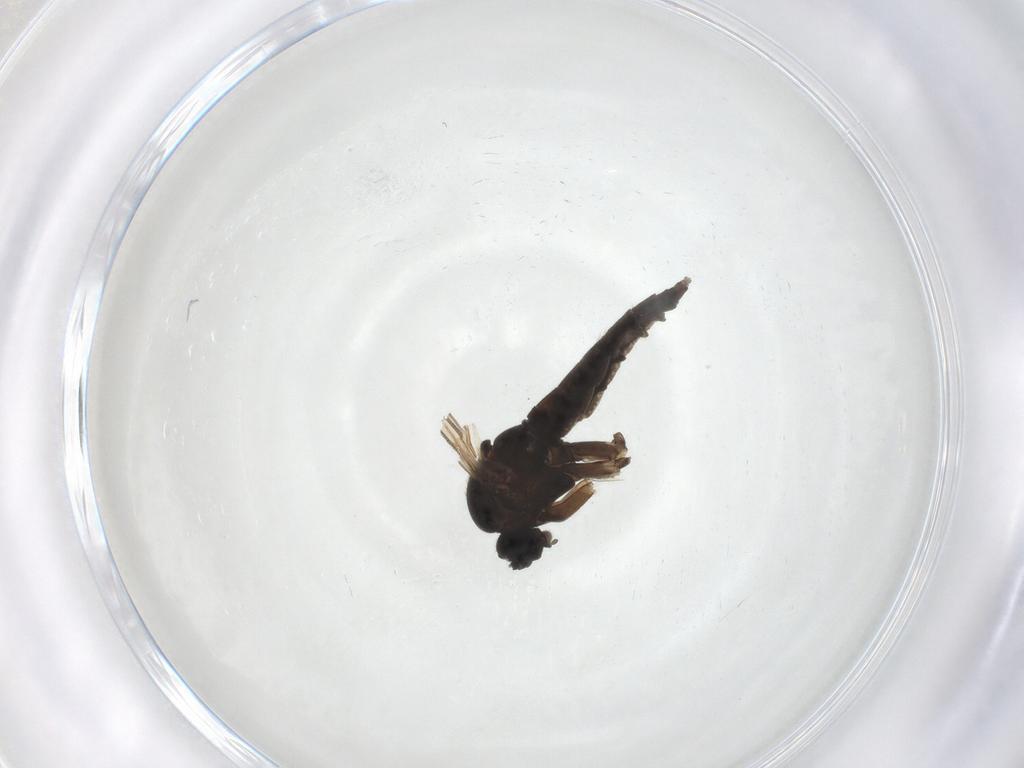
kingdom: Animalia
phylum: Arthropoda
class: Insecta
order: Diptera
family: Sciaridae
